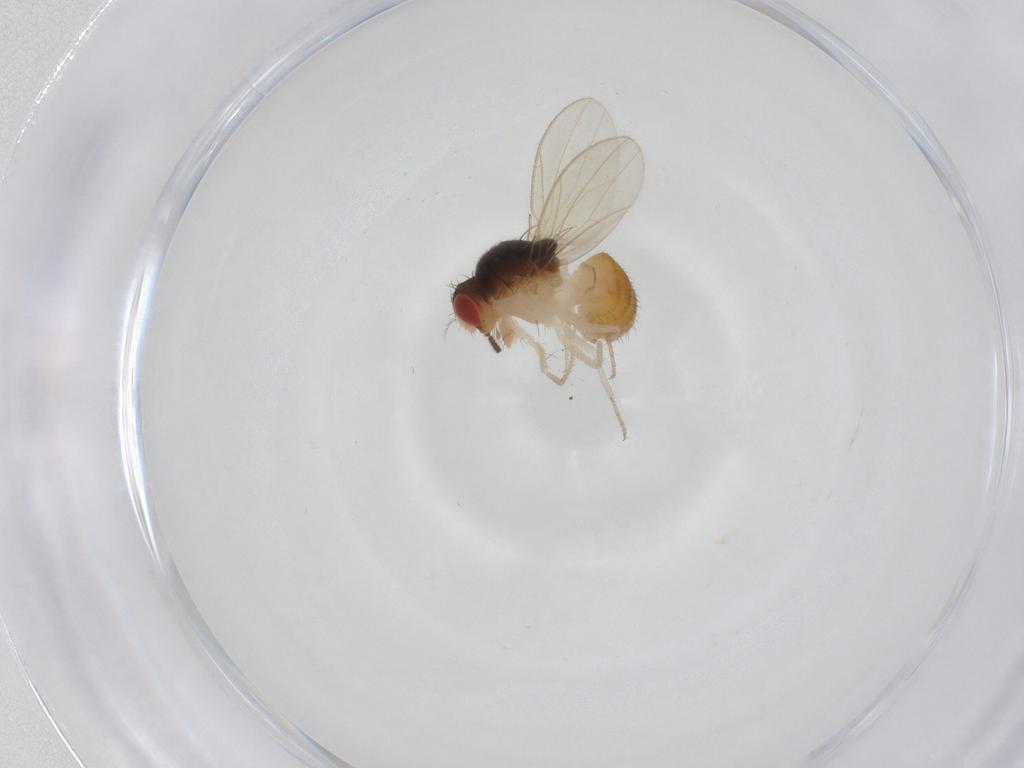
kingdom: Animalia
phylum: Arthropoda
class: Insecta
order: Diptera
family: Drosophilidae
